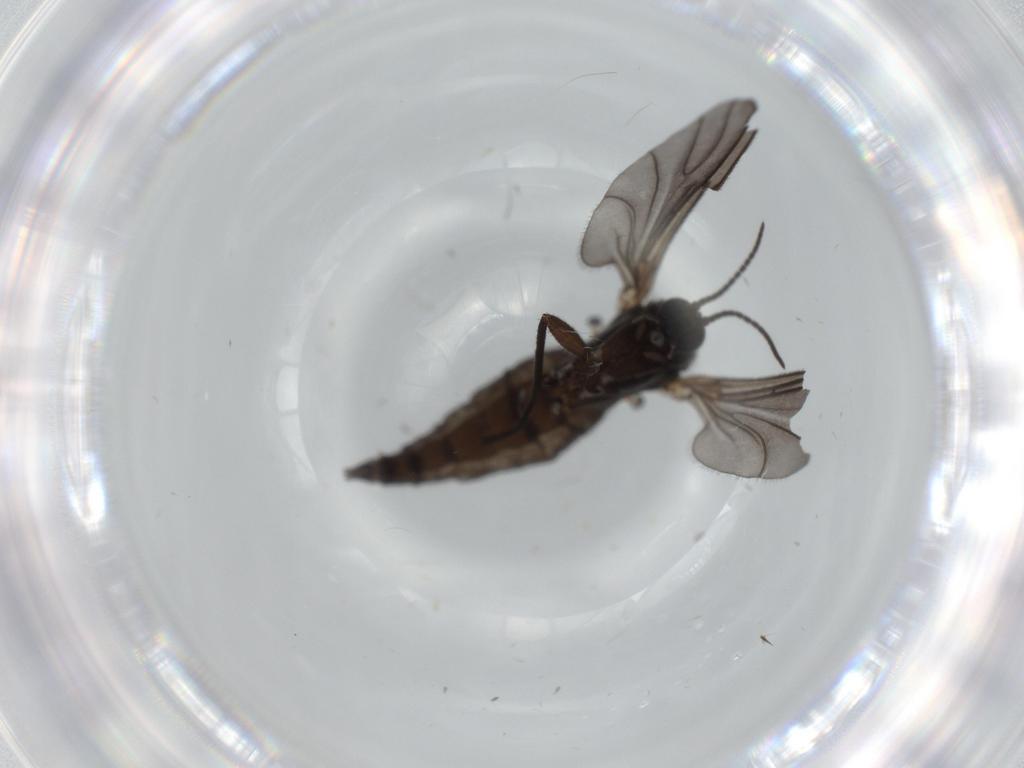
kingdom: Animalia
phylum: Arthropoda
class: Insecta
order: Diptera
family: Sciaridae
